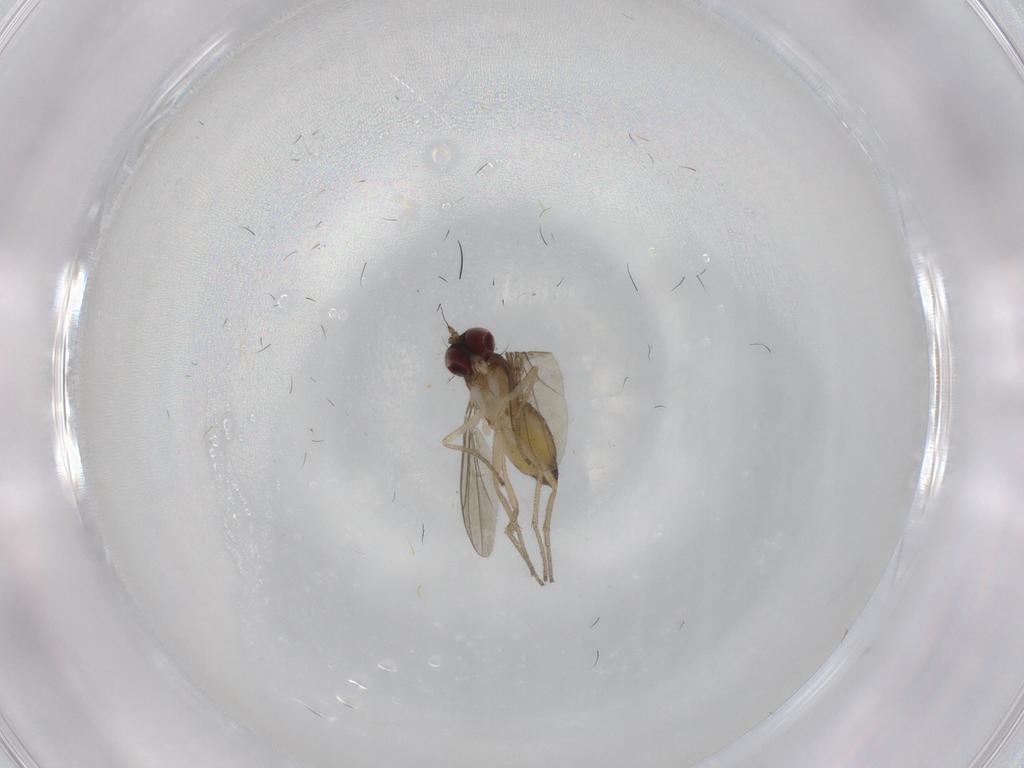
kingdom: Animalia
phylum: Arthropoda
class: Insecta
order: Diptera
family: Dolichopodidae
